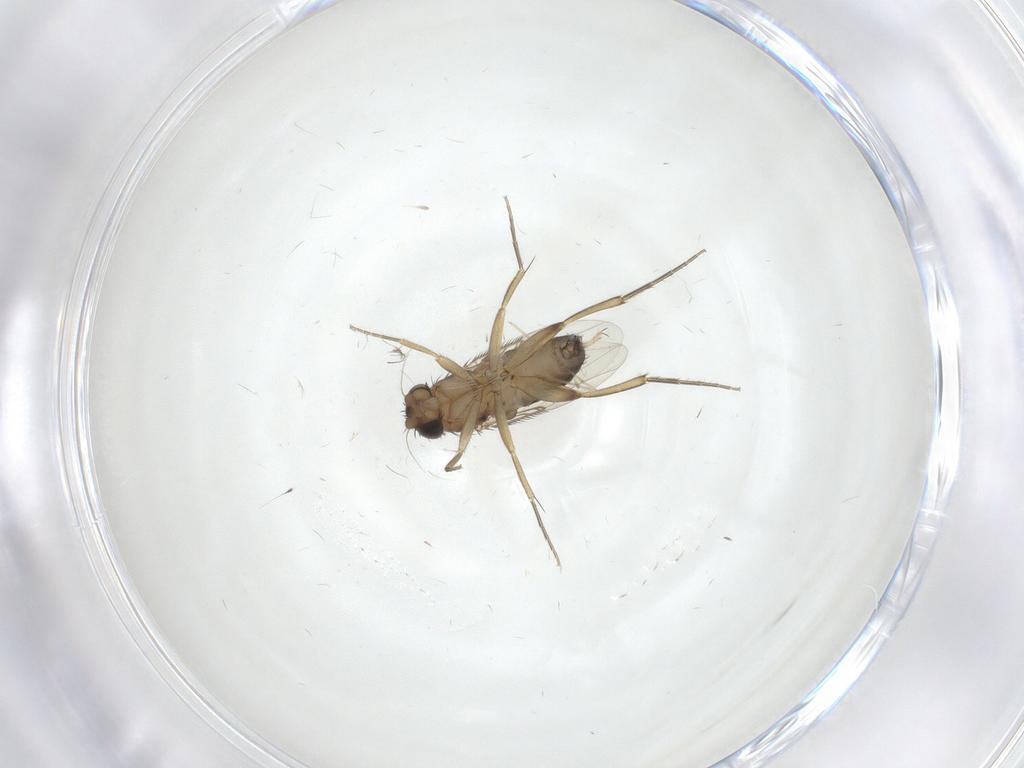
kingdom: Animalia
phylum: Arthropoda
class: Insecta
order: Diptera
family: Phoridae
